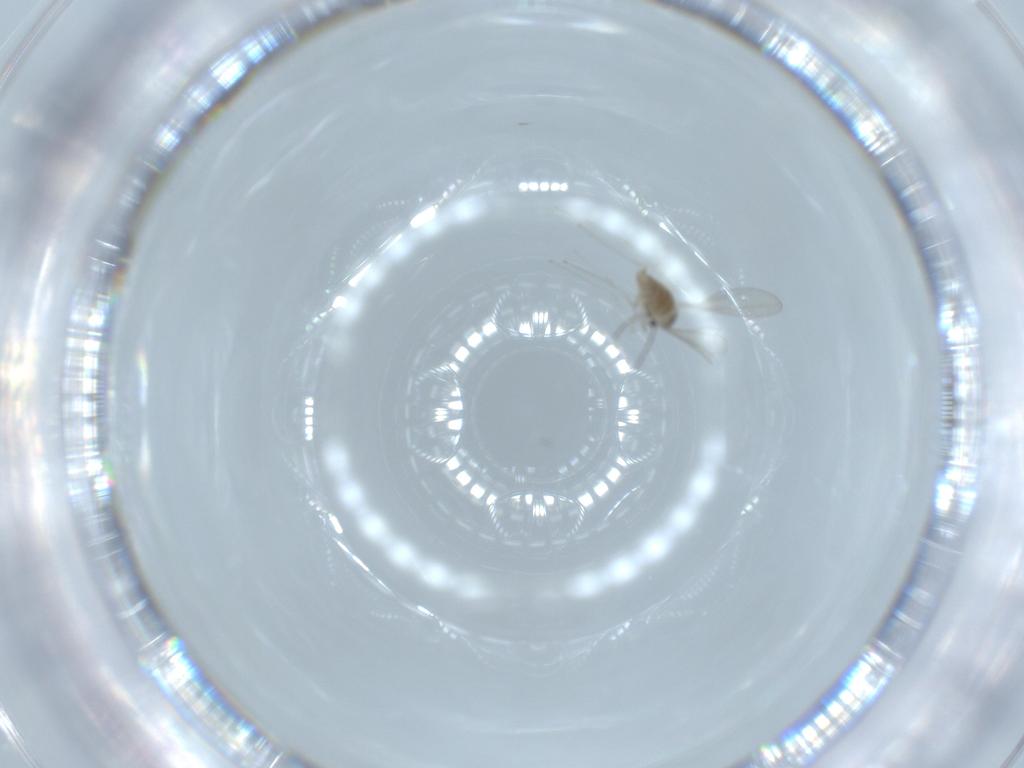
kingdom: Animalia
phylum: Arthropoda
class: Insecta
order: Diptera
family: Cecidomyiidae
